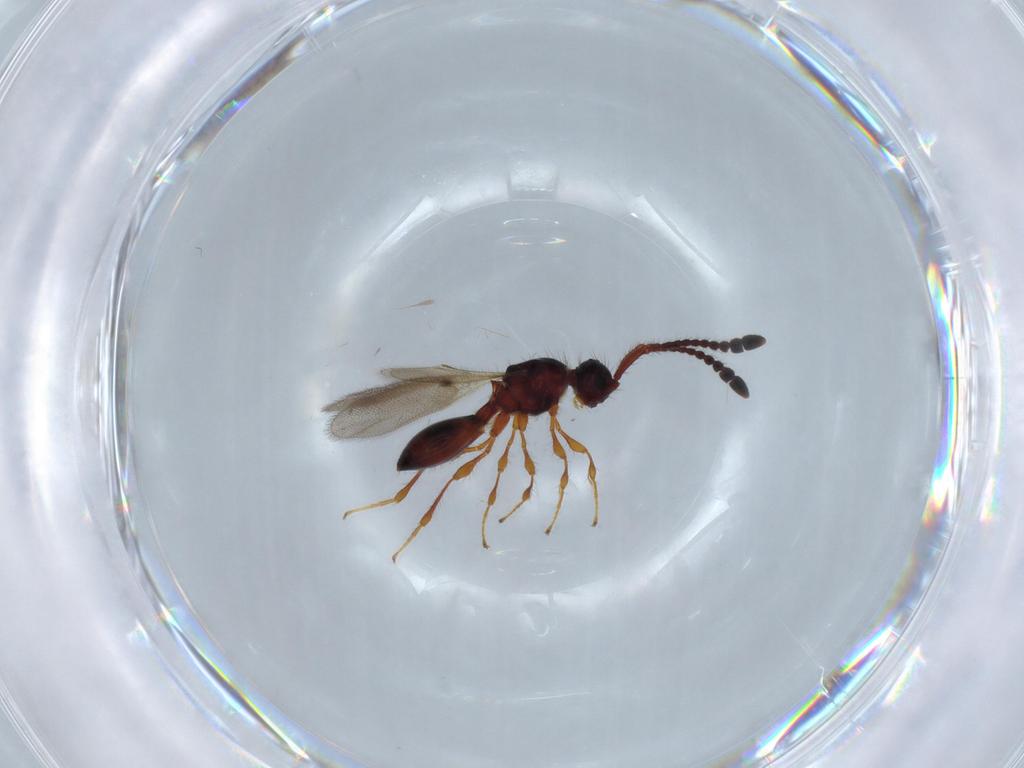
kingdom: Animalia
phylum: Arthropoda
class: Insecta
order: Hymenoptera
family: Diapriidae
